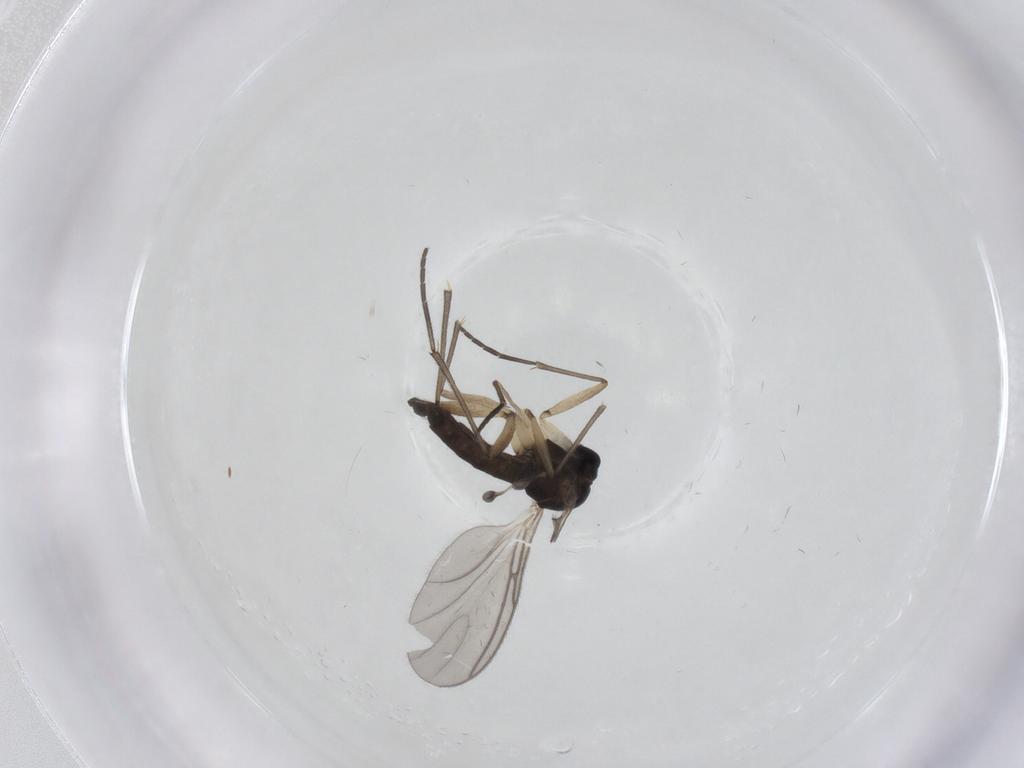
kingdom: Animalia
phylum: Arthropoda
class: Insecta
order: Diptera
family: Sciaridae
